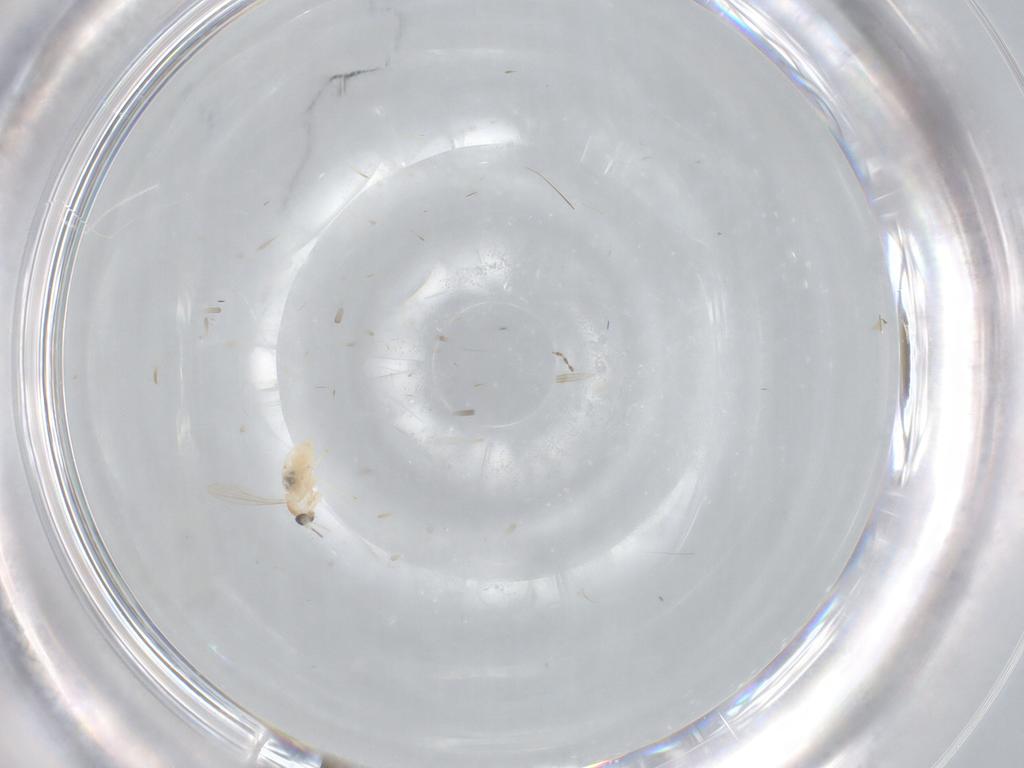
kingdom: Animalia
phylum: Arthropoda
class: Insecta
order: Diptera
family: Cecidomyiidae
